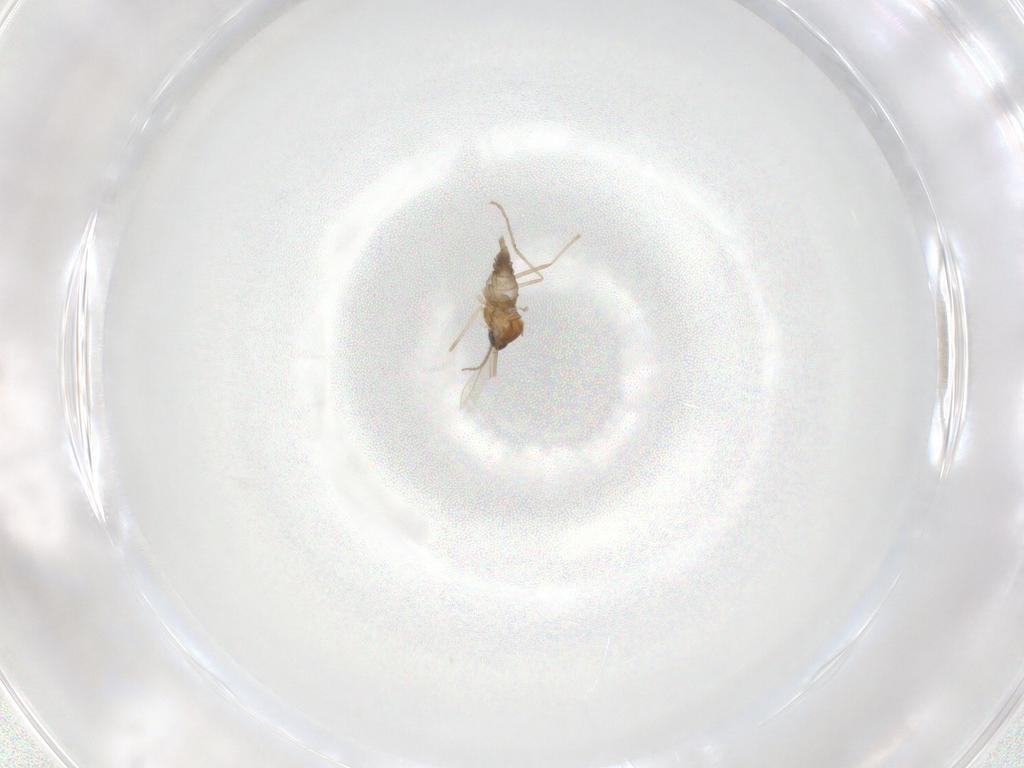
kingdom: Animalia
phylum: Arthropoda
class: Insecta
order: Diptera
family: Cecidomyiidae
